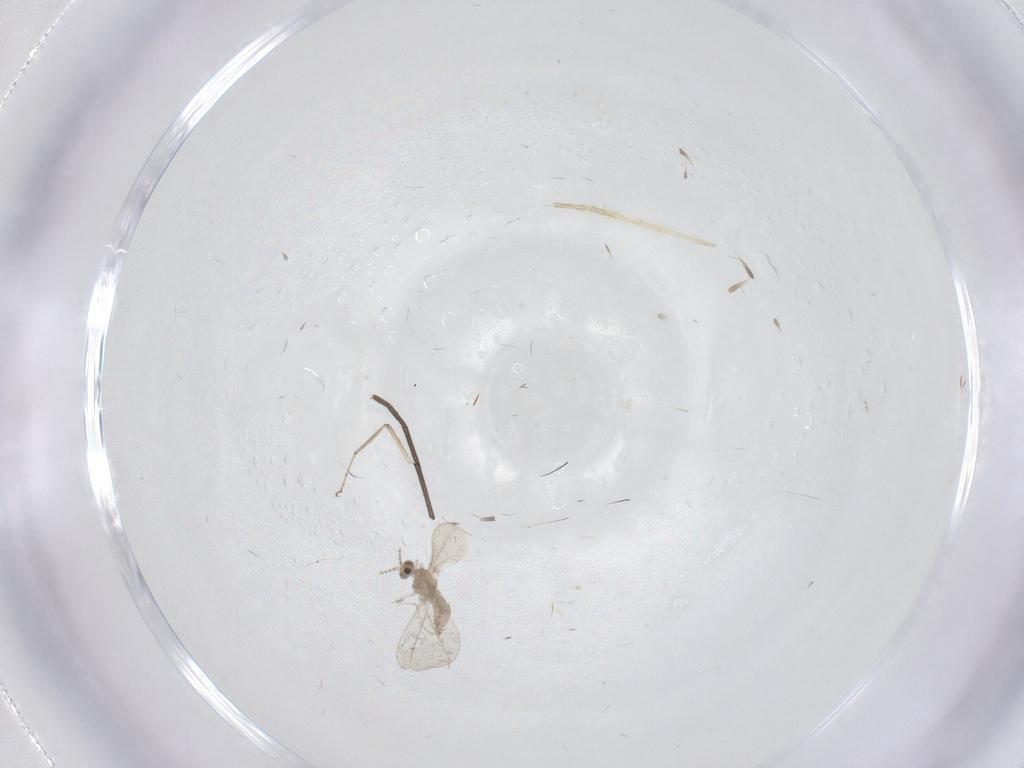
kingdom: Animalia
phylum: Arthropoda
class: Insecta
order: Diptera
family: Ceratopogonidae
